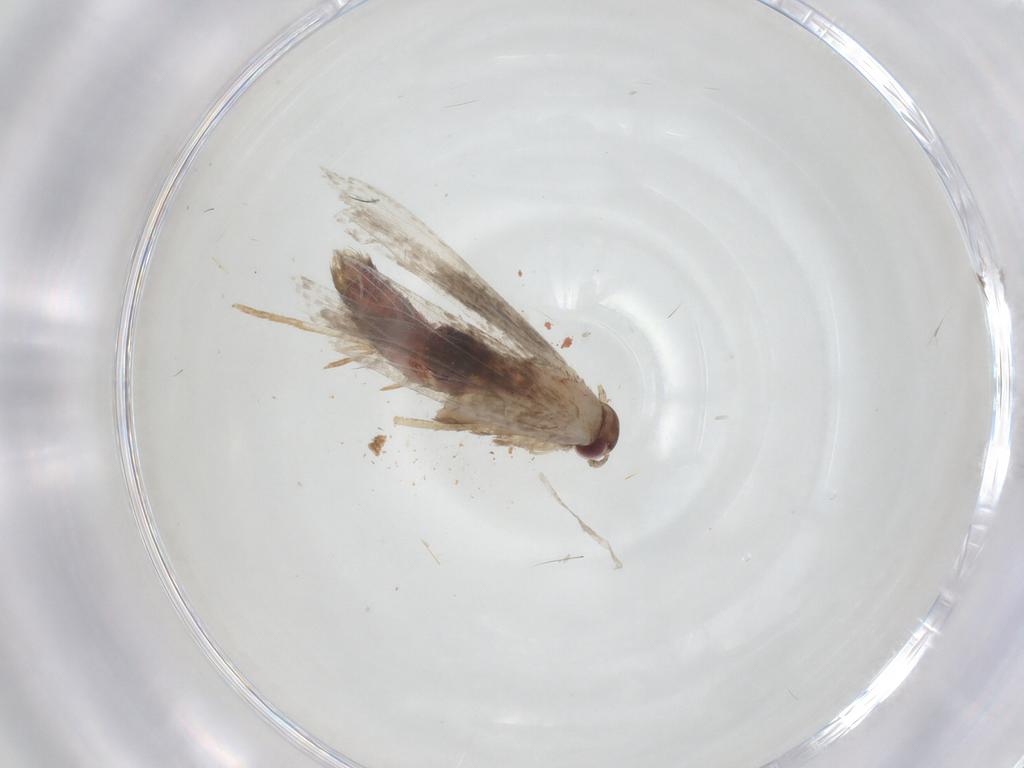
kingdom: Animalia
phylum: Arthropoda
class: Insecta
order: Lepidoptera
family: Gelechiidae
